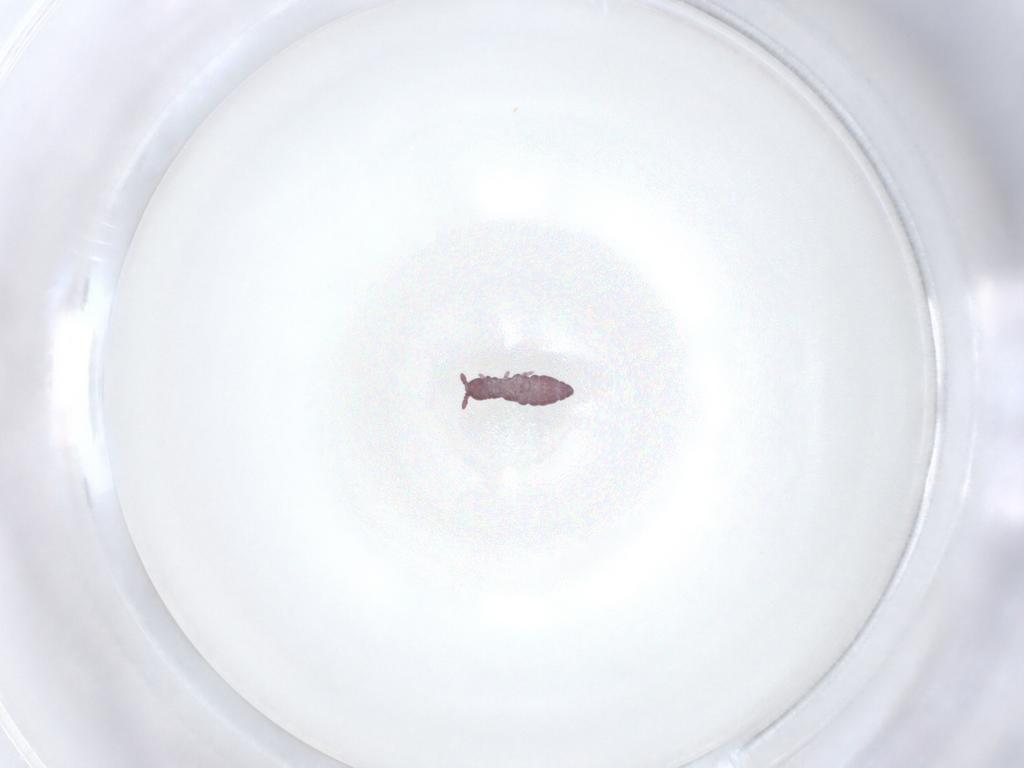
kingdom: Animalia
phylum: Arthropoda
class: Collembola
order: Poduromorpha
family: Hypogastruridae
